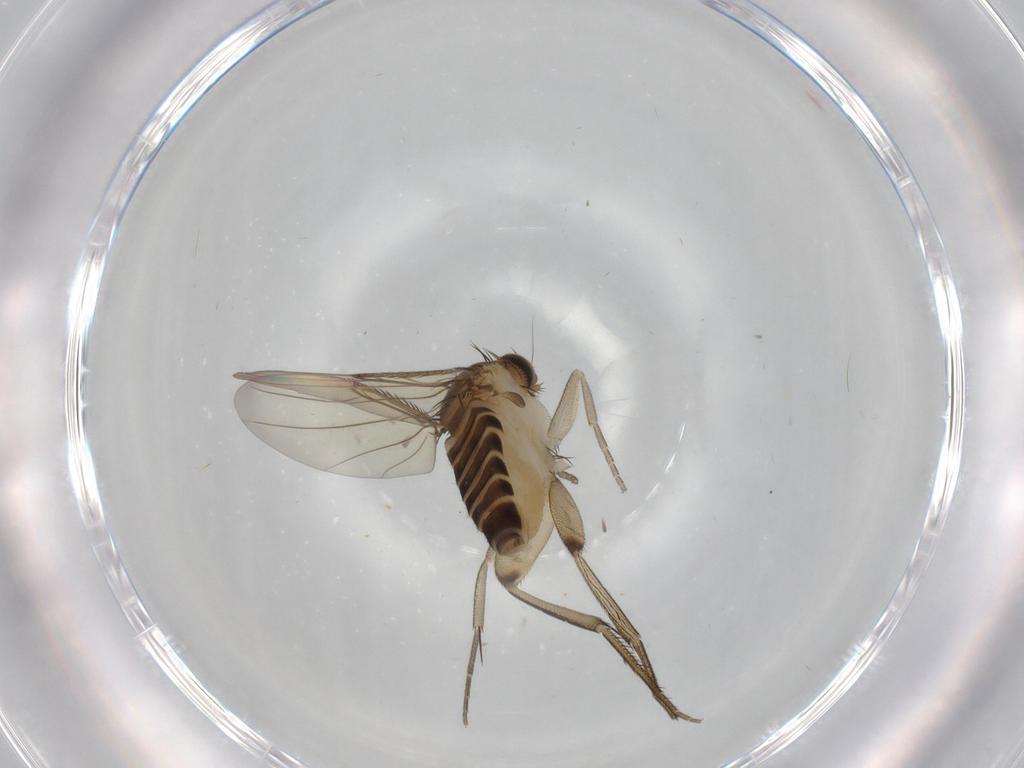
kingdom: Animalia
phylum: Arthropoda
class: Insecta
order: Diptera
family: Phoridae
